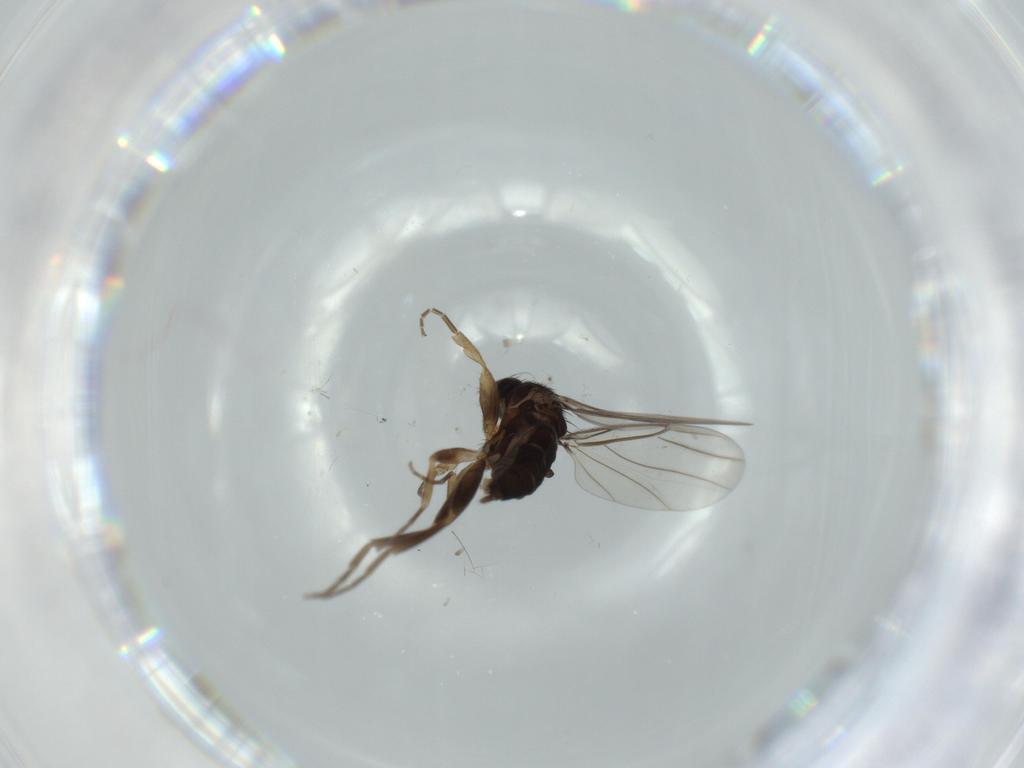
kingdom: Animalia
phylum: Arthropoda
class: Insecta
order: Diptera
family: Phoridae
